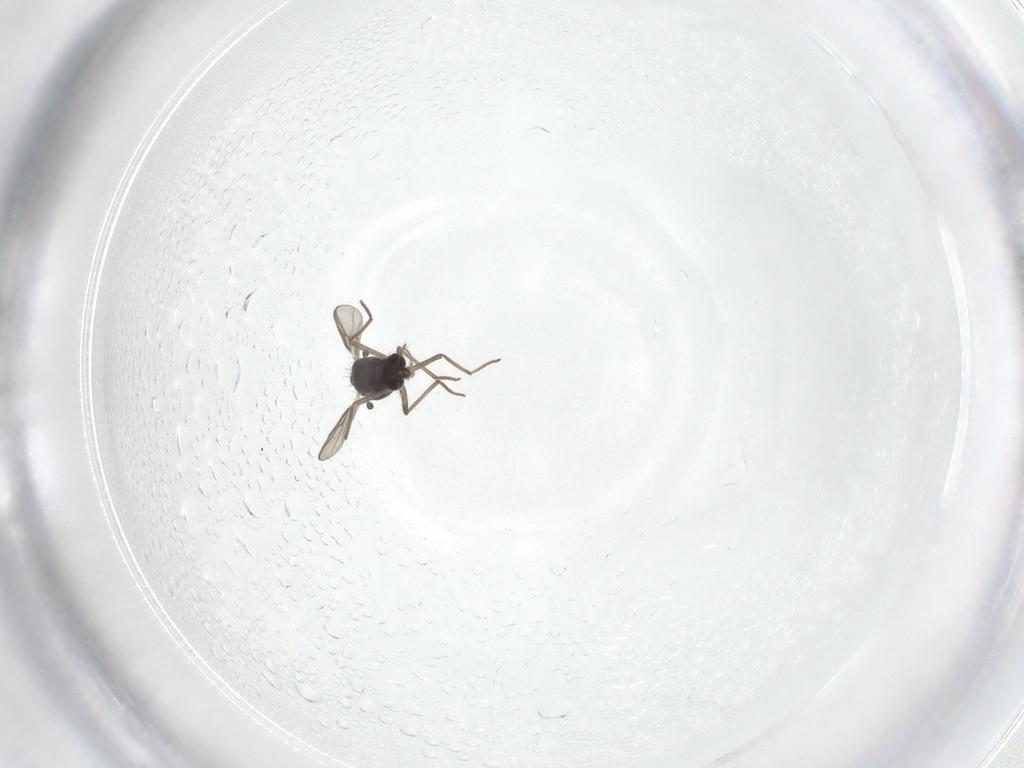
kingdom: Animalia
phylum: Arthropoda
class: Insecta
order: Diptera
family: Chironomidae
